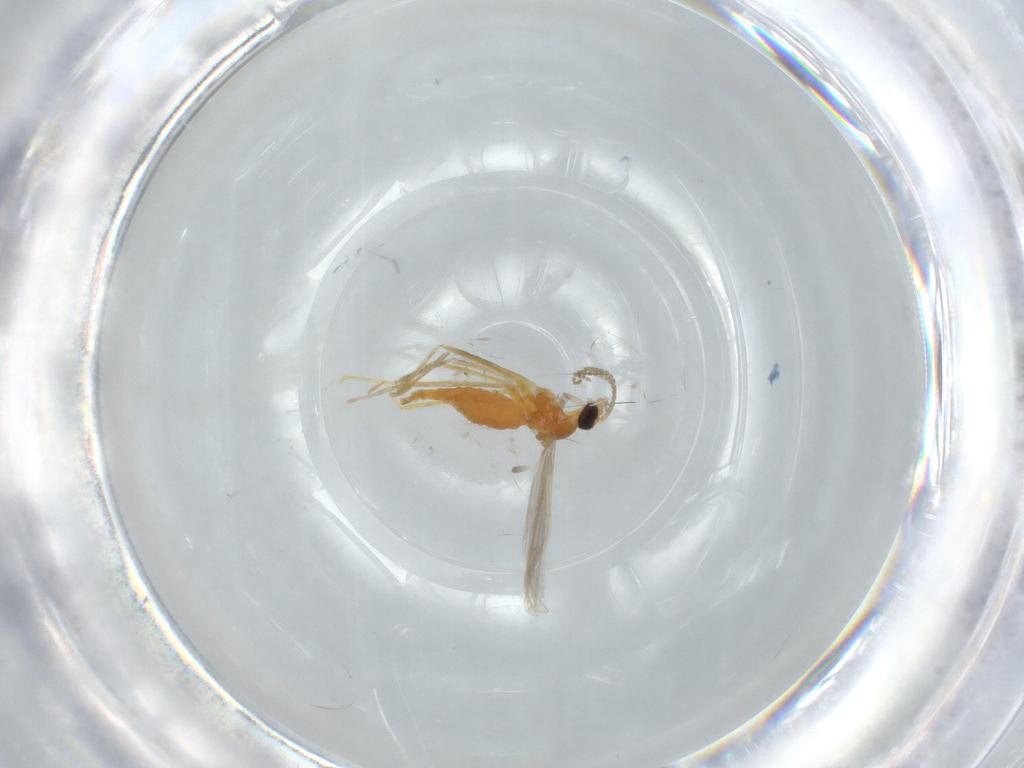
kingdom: Animalia
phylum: Arthropoda
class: Insecta
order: Diptera
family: Cecidomyiidae
